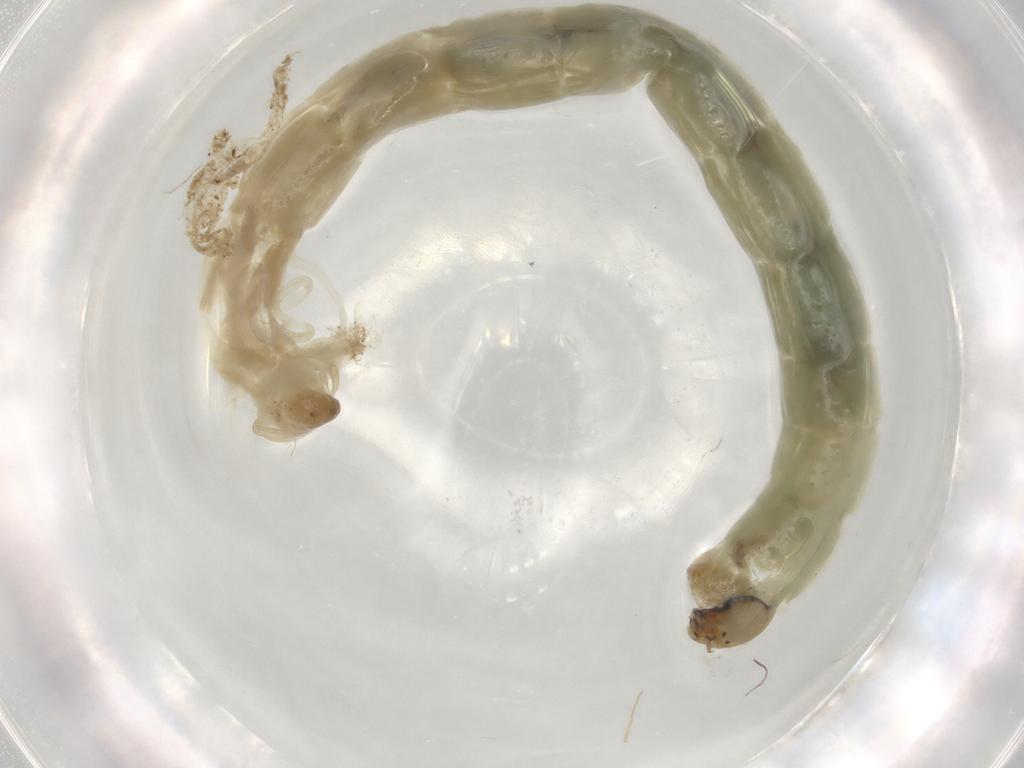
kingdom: Animalia
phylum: Arthropoda
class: Insecta
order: Diptera
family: Chironomidae
